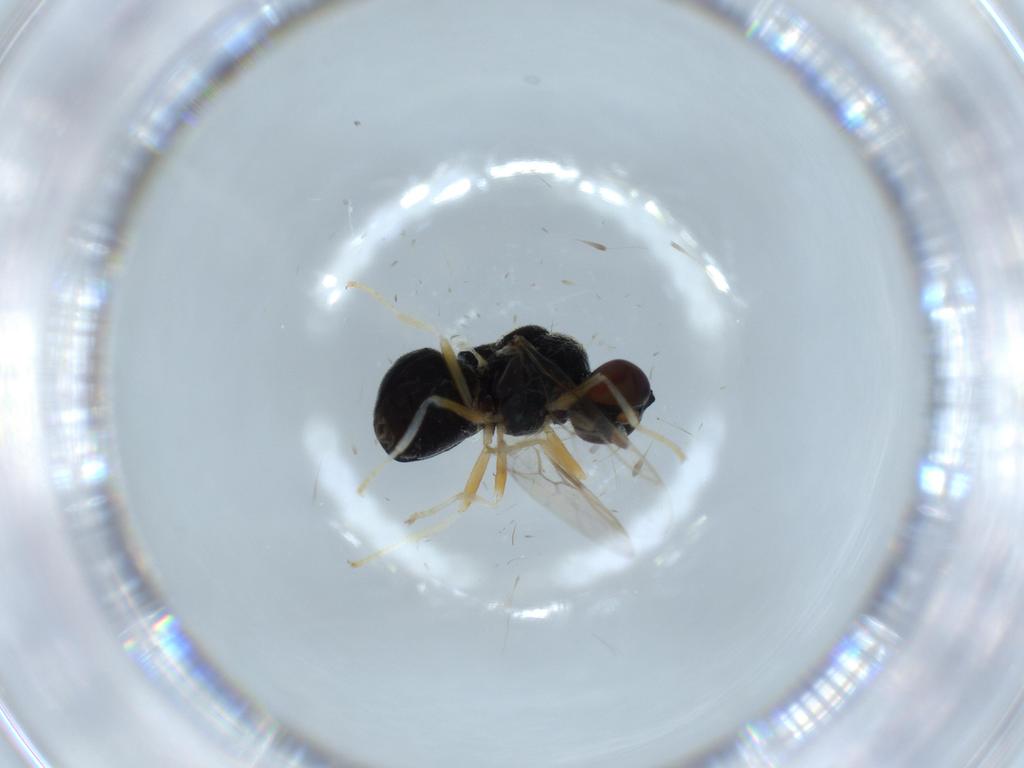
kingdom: Animalia
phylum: Arthropoda
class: Insecta
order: Diptera
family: Stratiomyidae
